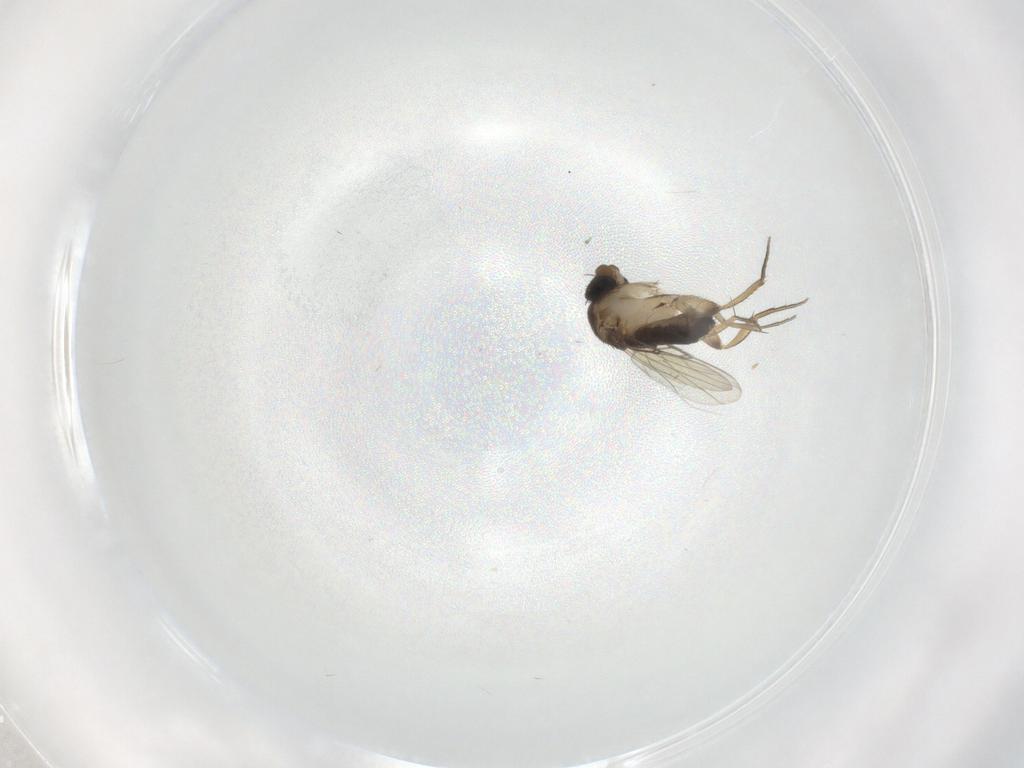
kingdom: Animalia
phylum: Arthropoda
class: Insecta
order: Diptera
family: Phoridae
